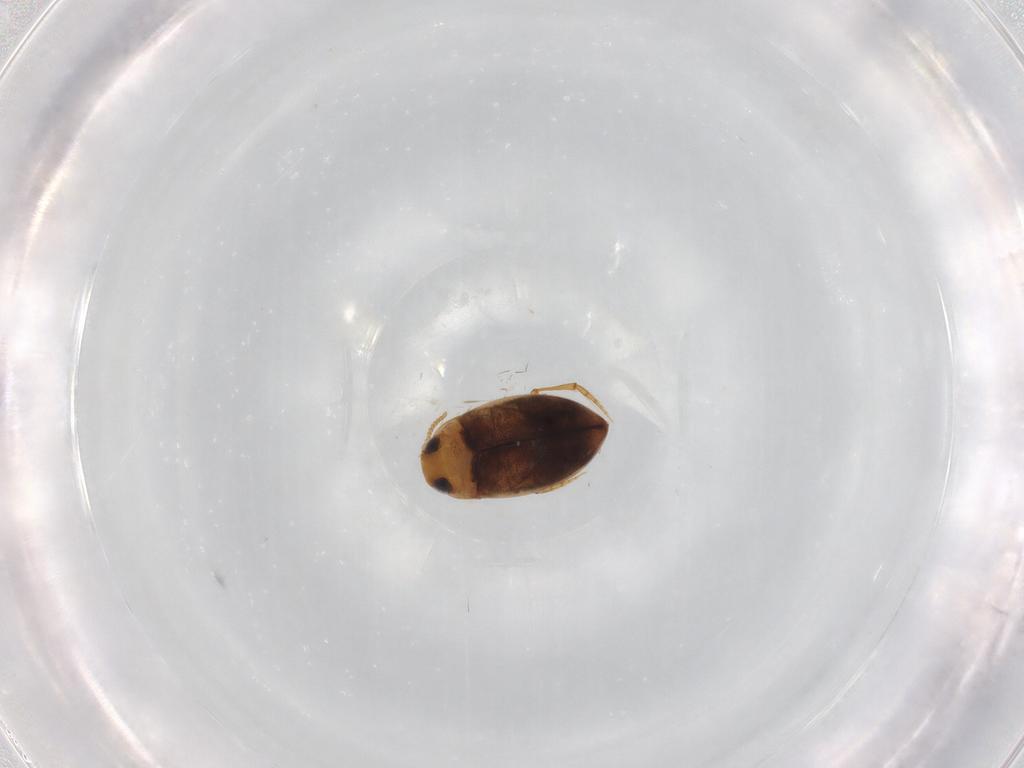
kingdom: Animalia
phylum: Arthropoda
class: Insecta
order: Coleoptera
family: Dytiscidae
